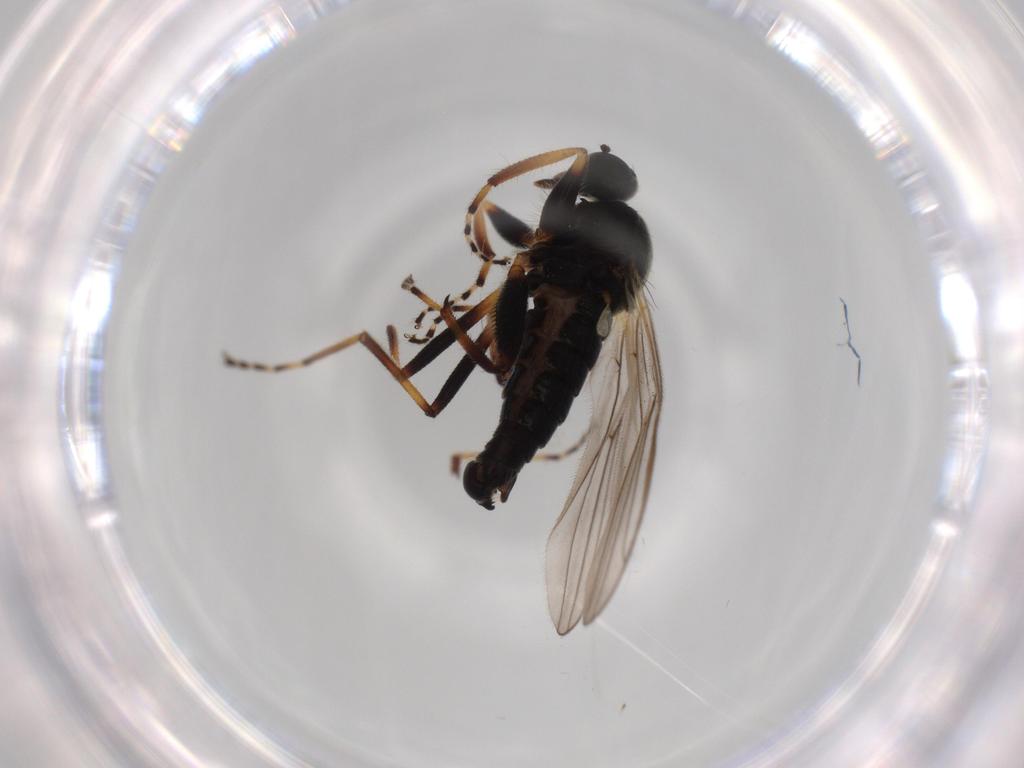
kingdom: Animalia
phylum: Arthropoda
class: Insecta
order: Diptera
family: Hybotidae
